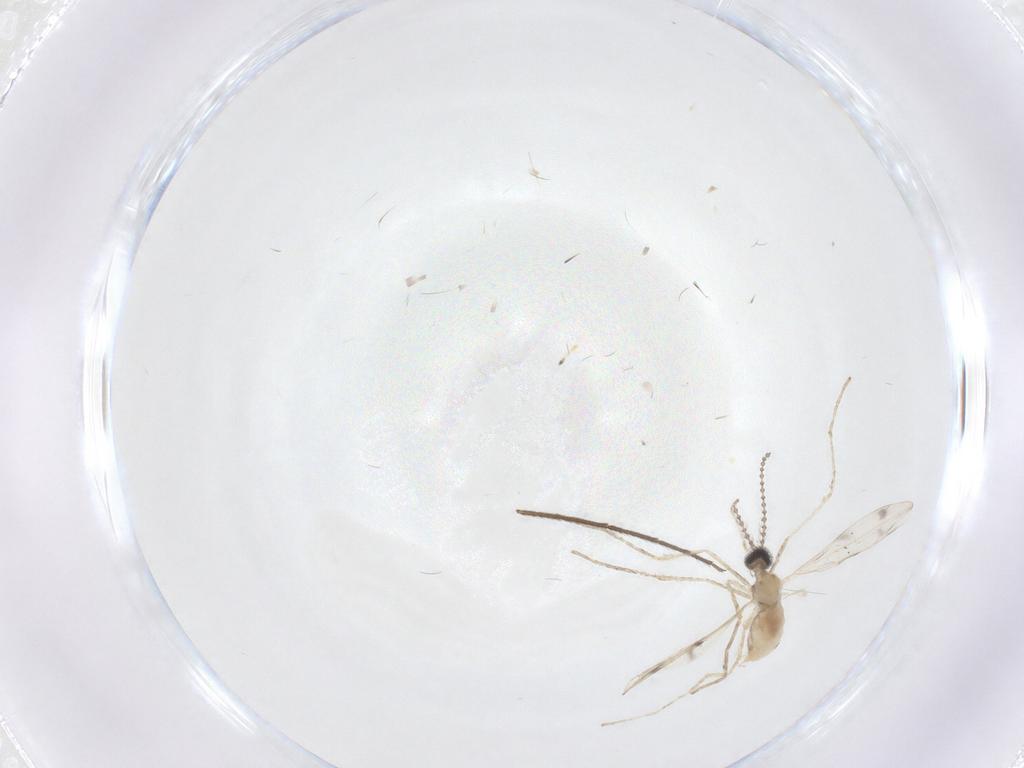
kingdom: Animalia
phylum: Arthropoda
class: Insecta
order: Diptera
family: Chironomidae
